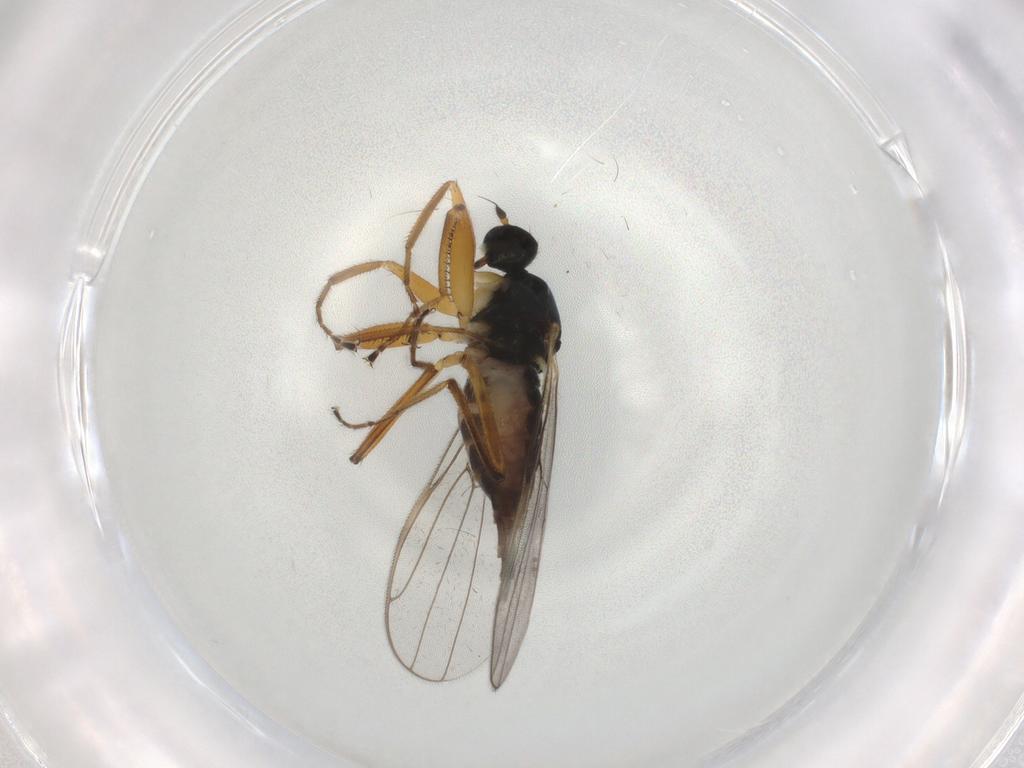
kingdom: Animalia
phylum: Arthropoda
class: Insecta
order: Diptera
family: Hybotidae
